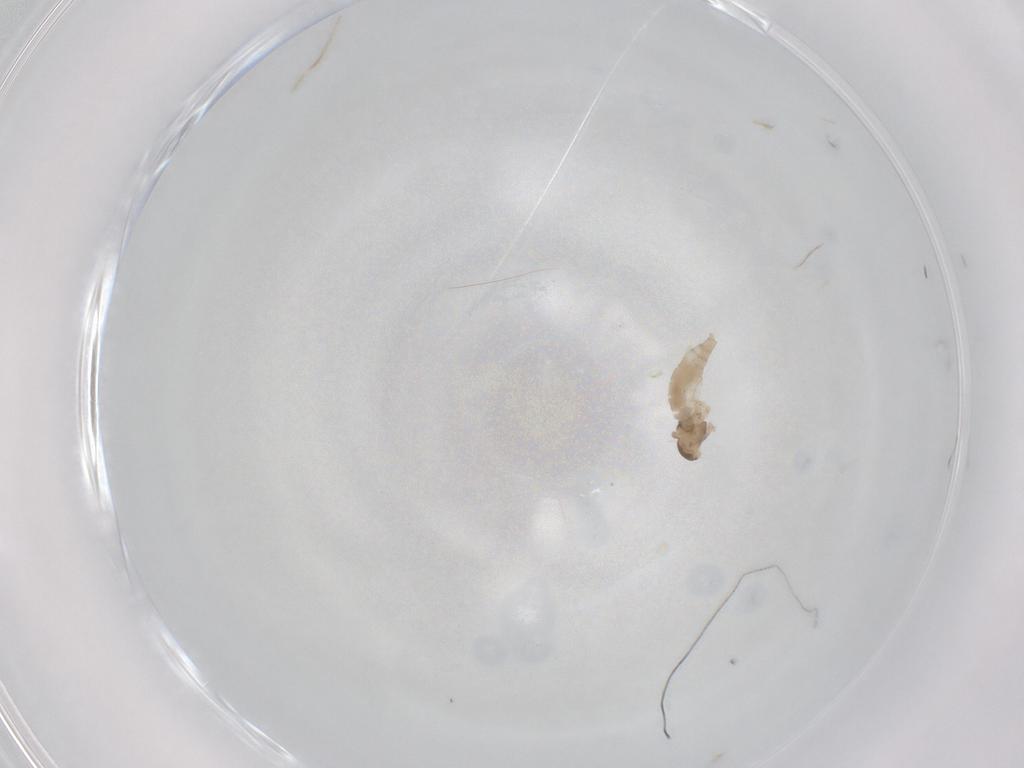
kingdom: Animalia
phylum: Arthropoda
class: Insecta
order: Diptera
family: Cecidomyiidae
